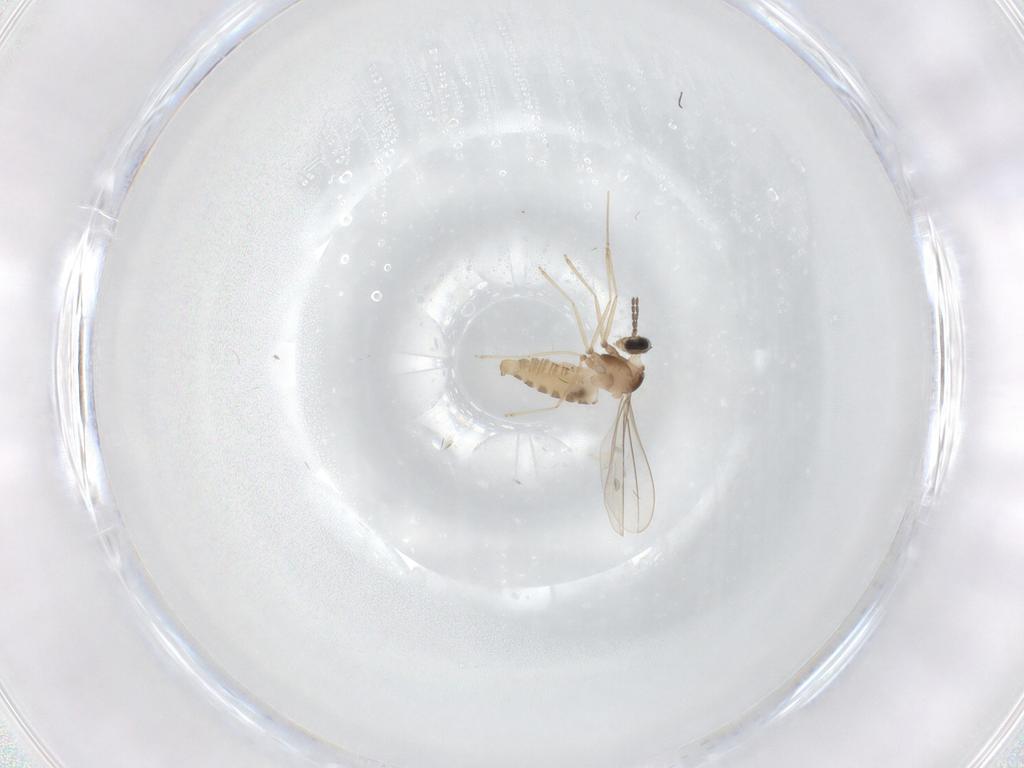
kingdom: Animalia
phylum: Arthropoda
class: Insecta
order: Diptera
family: Ceratopogonidae
